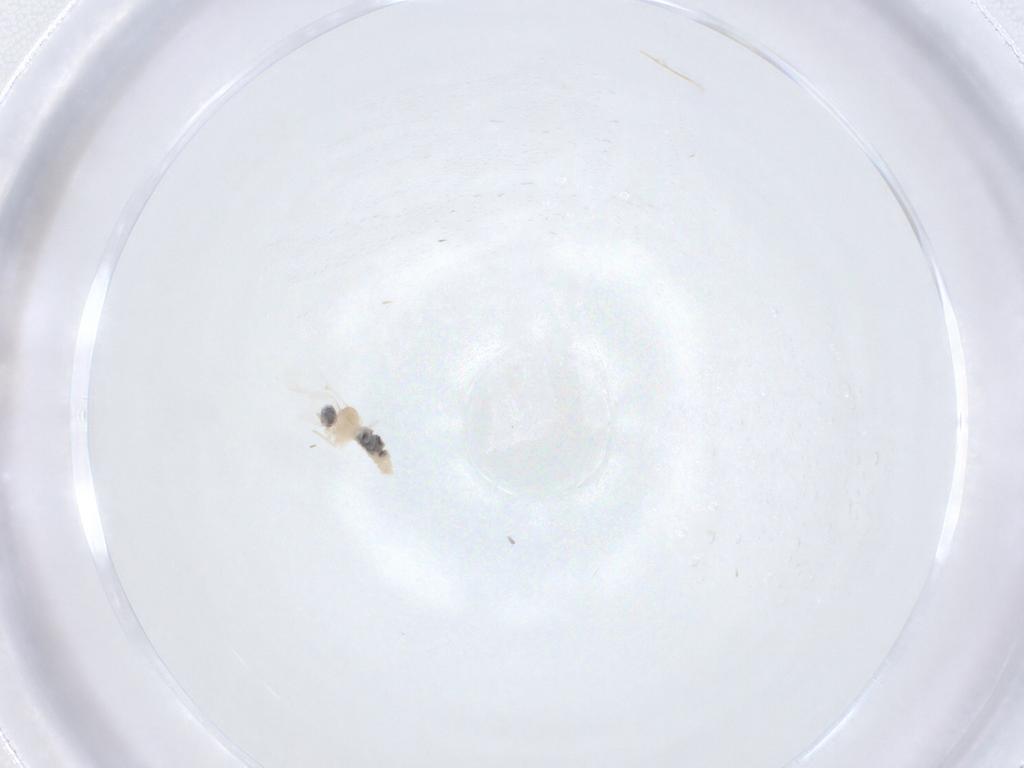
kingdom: Animalia
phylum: Arthropoda
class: Insecta
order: Diptera
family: Cecidomyiidae
